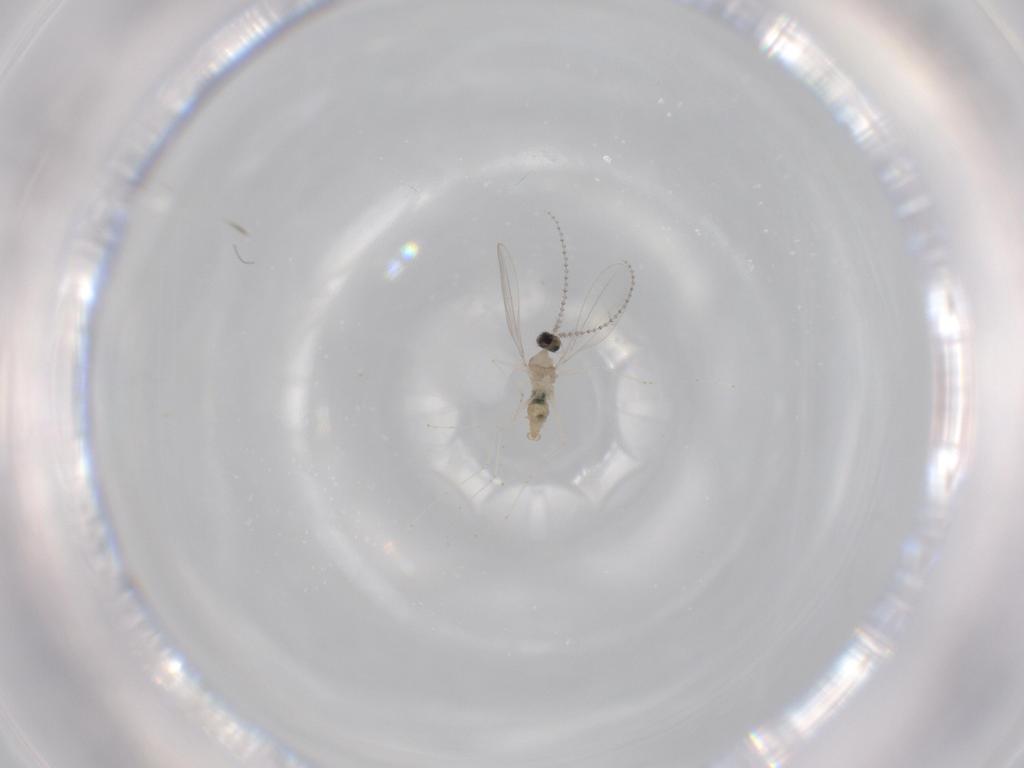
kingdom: Animalia
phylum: Arthropoda
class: Insecta
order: Diptera
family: Cecidomyiidae
